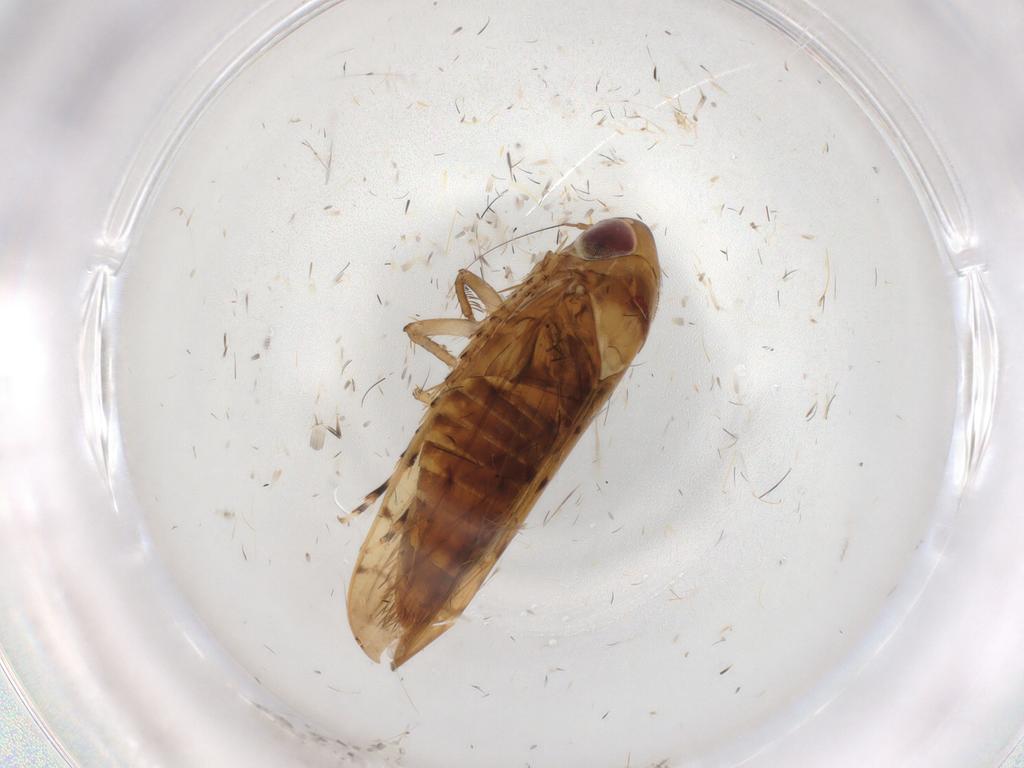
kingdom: Animalia
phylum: Arthropoda
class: Insecta
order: Hemiptera
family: Cicadellidae
